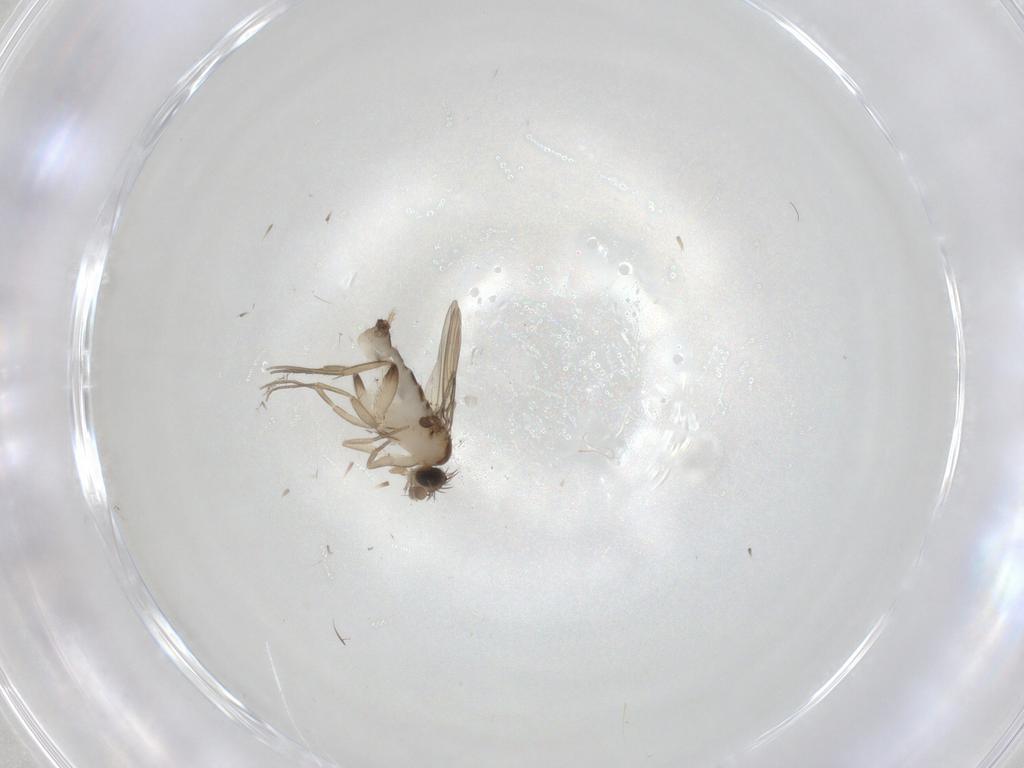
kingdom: Animalia
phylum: Arthropoda
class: Insecta
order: Diptera
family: Phoridae
